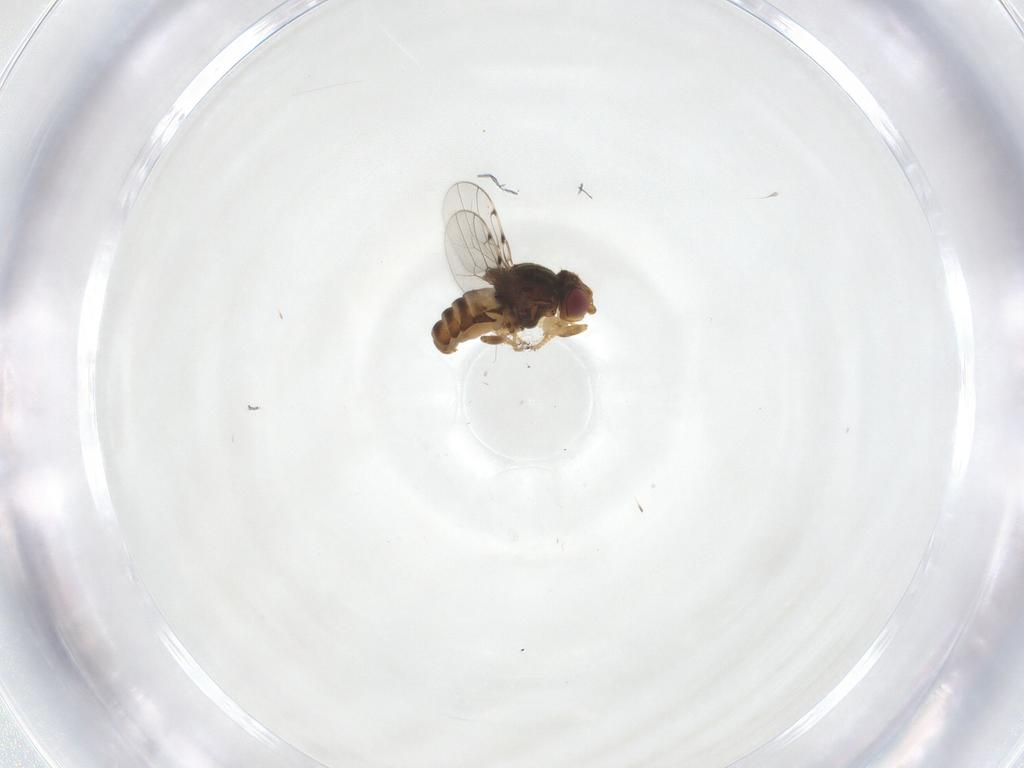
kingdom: Animalia
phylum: Arthropoda
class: Insecta
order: Diptera
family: Chloropidae
